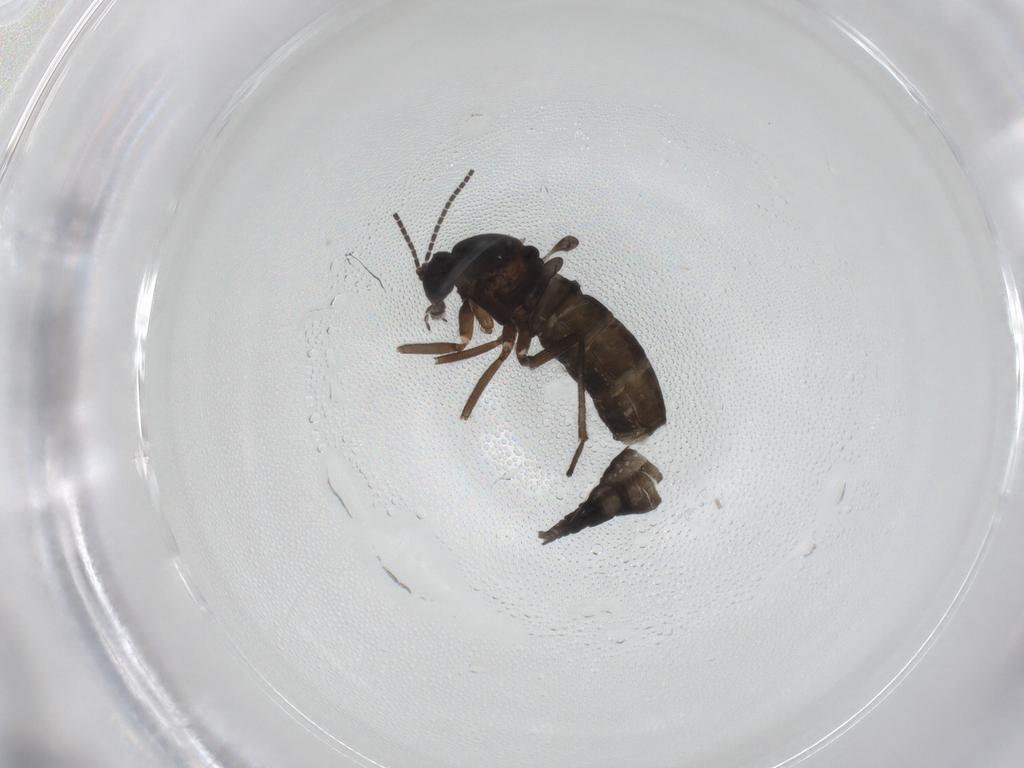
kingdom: Animalia
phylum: Arthropoda
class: Insecta
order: Diptera
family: Sciaridae
